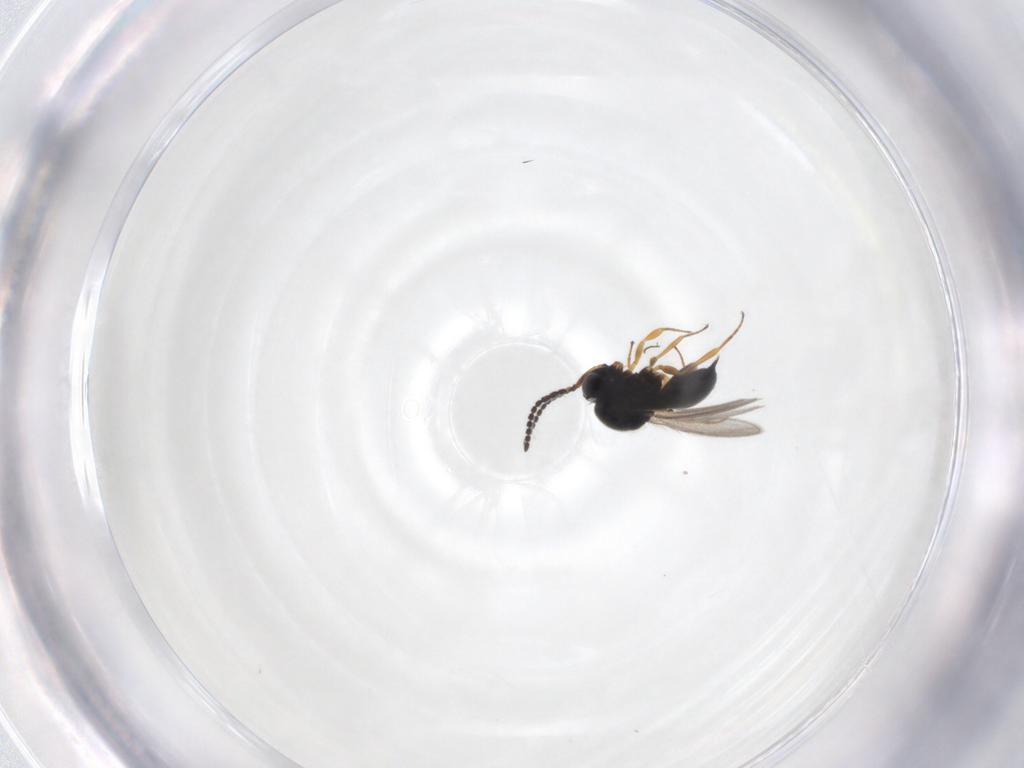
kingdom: Animalia
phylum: Arthropoda
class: Insecta
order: Hymenoptera
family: Scelionidae
